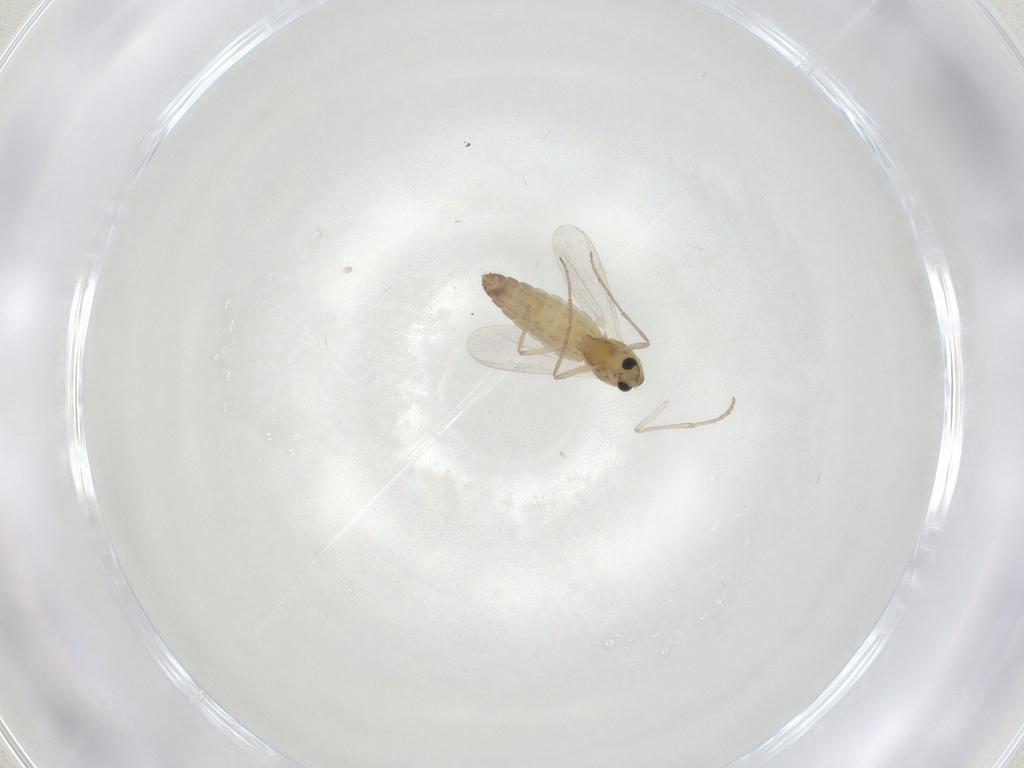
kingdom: Animalia
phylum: Arthropoda
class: Insecta
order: Diptera
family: Psychodidae
